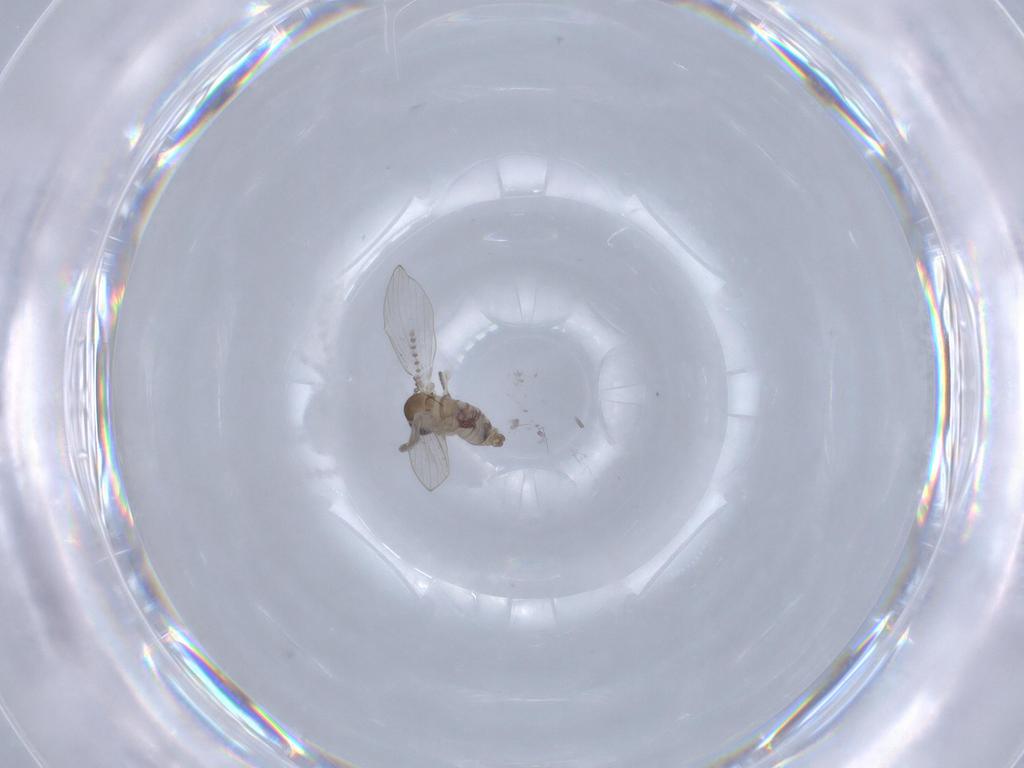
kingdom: Animalia
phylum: Arthropoda
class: Insecta
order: Diptera
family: Psychodidae
